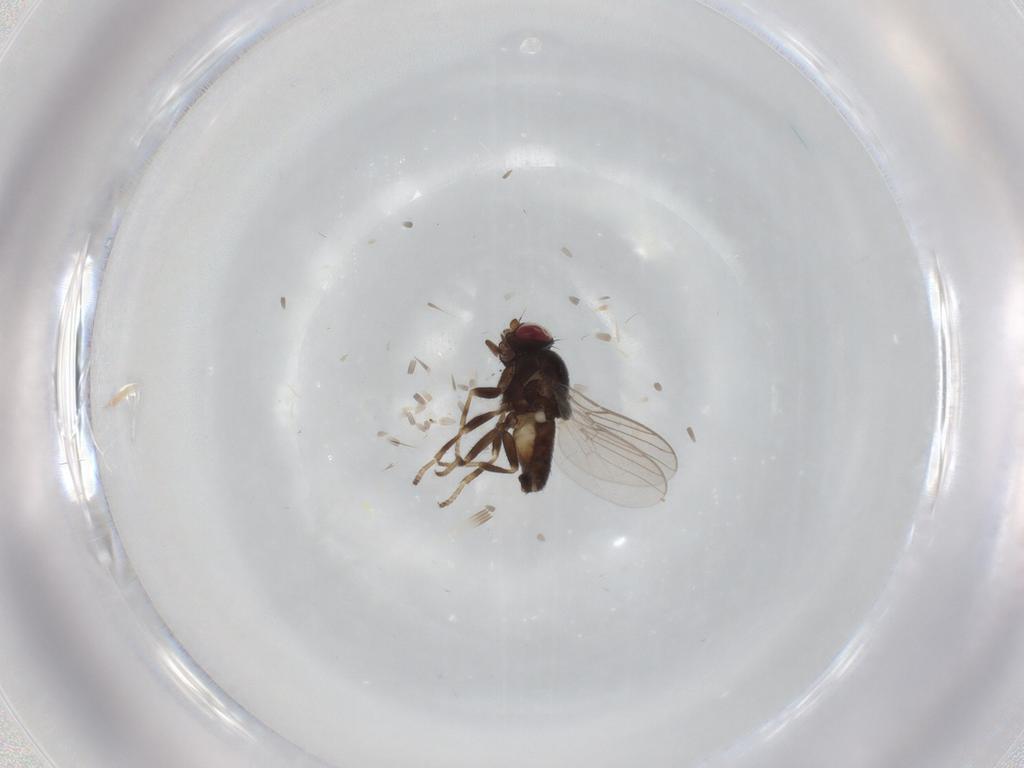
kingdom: Animalia
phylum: Arthropoda
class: Insecta
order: Diptera
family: Chloropidae
